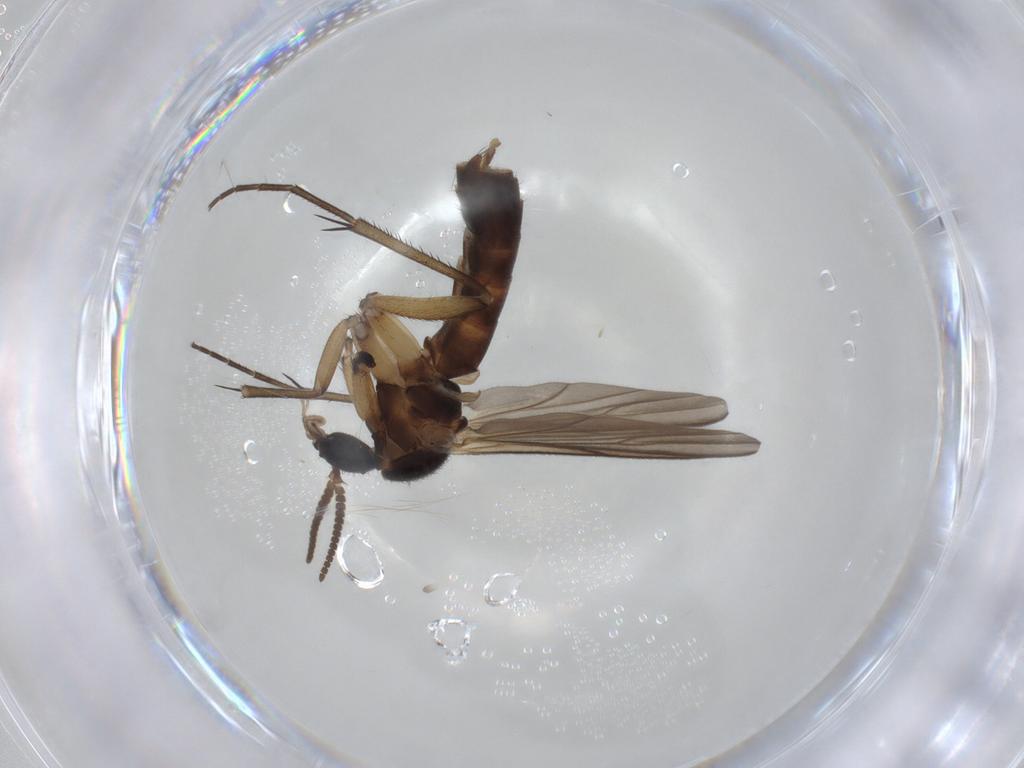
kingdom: Animalia
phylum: Arthropoda
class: Insecta
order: Diptera
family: Mycetophilidae
